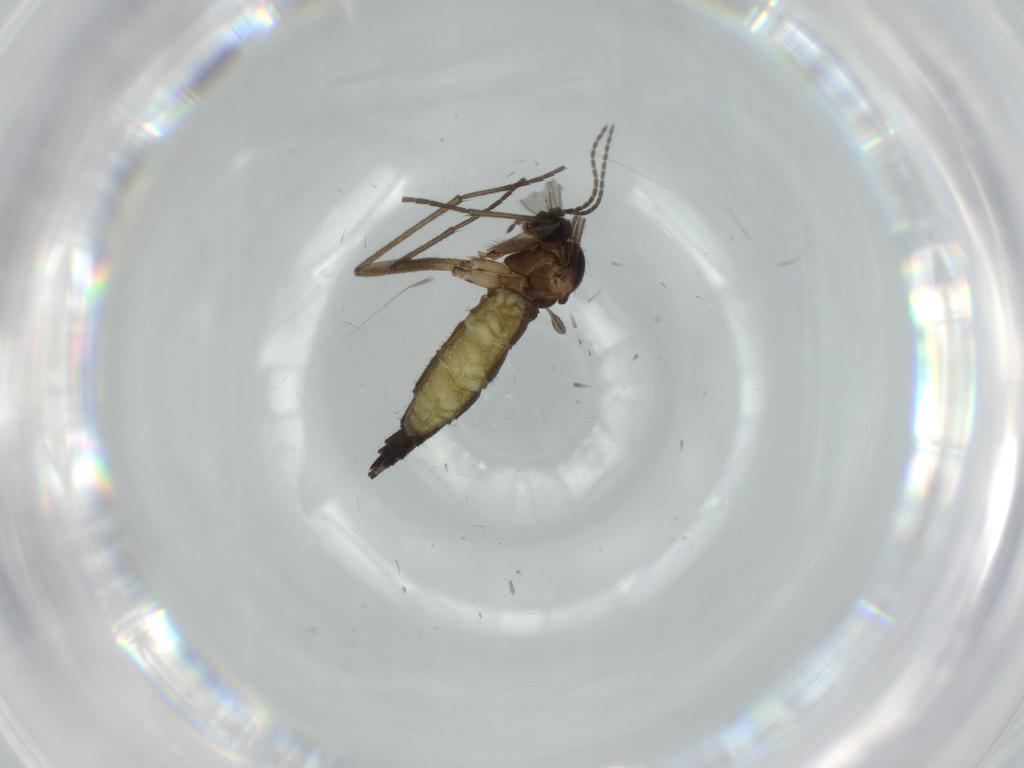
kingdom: Animalia
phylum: Arthropoda
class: Insecta
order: Diptera
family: Sciaridae
